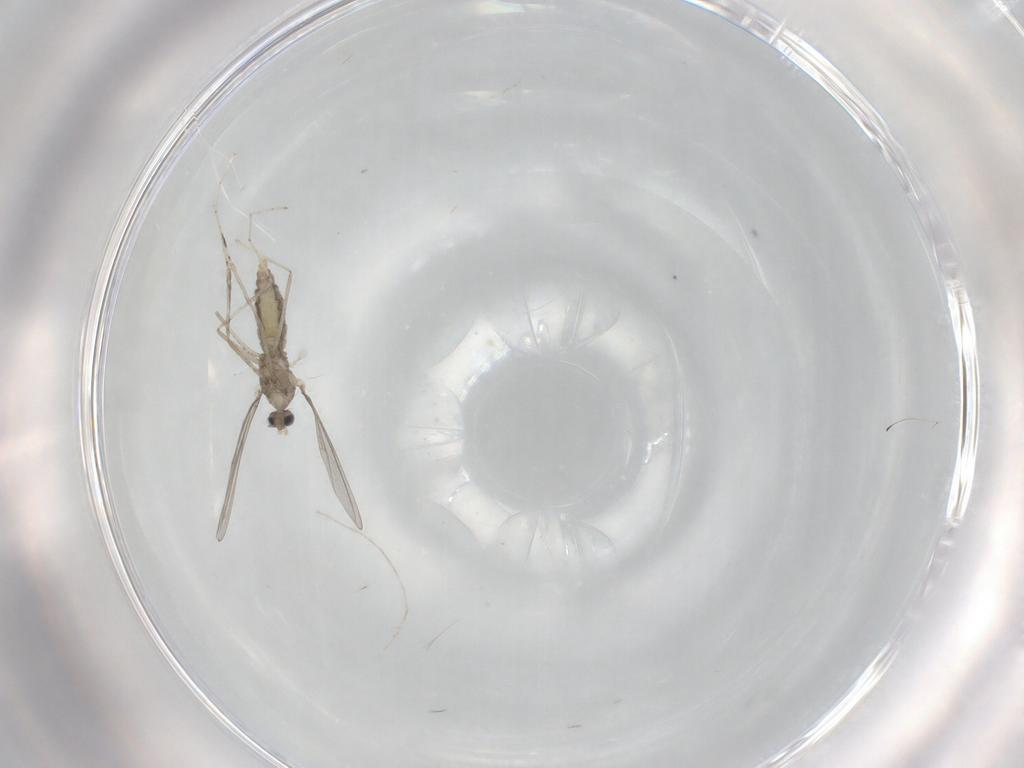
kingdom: Animalia
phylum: Arthropoda
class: Insecta
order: Diptera
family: Cecidomyiidae
